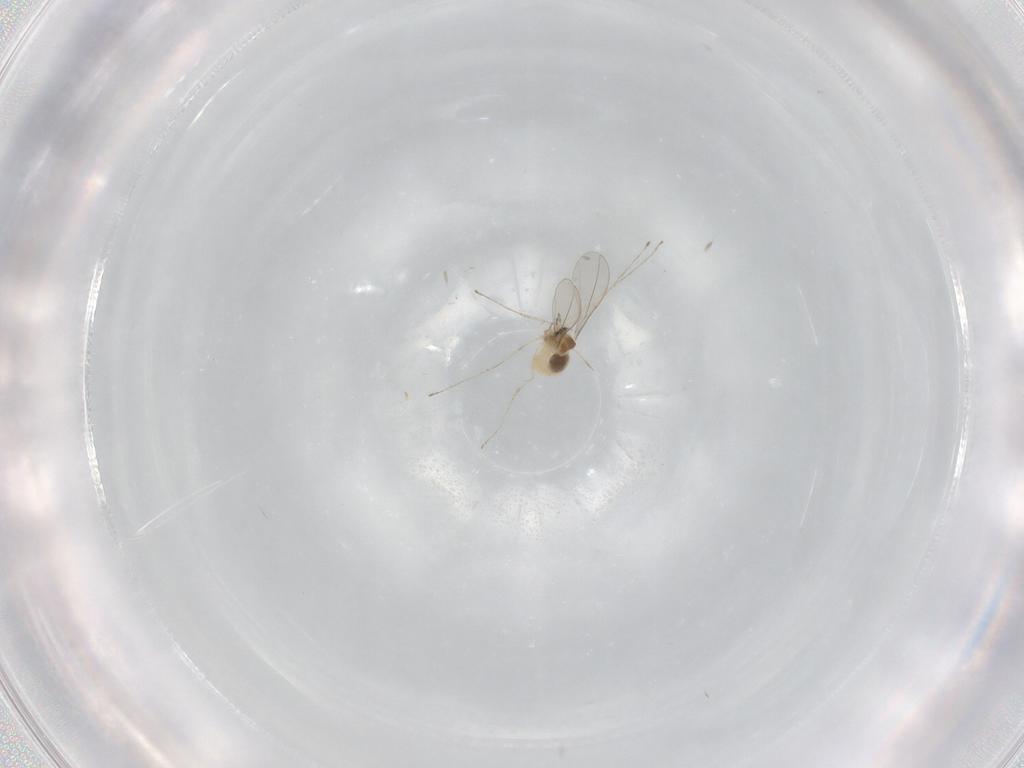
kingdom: Animalia
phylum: Arthropoda
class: Insecta
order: Diptera
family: Cecidomyiidae
